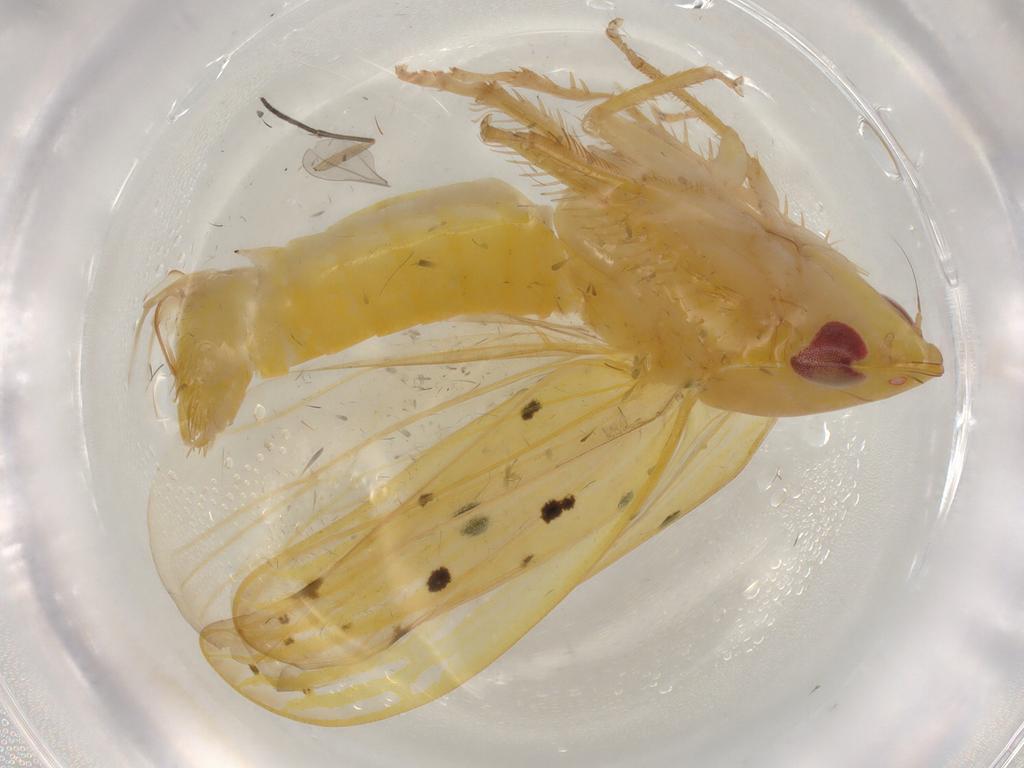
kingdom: Animalia
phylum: Arthropoda
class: Insecta
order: Hemiptera
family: Cicadellidae
